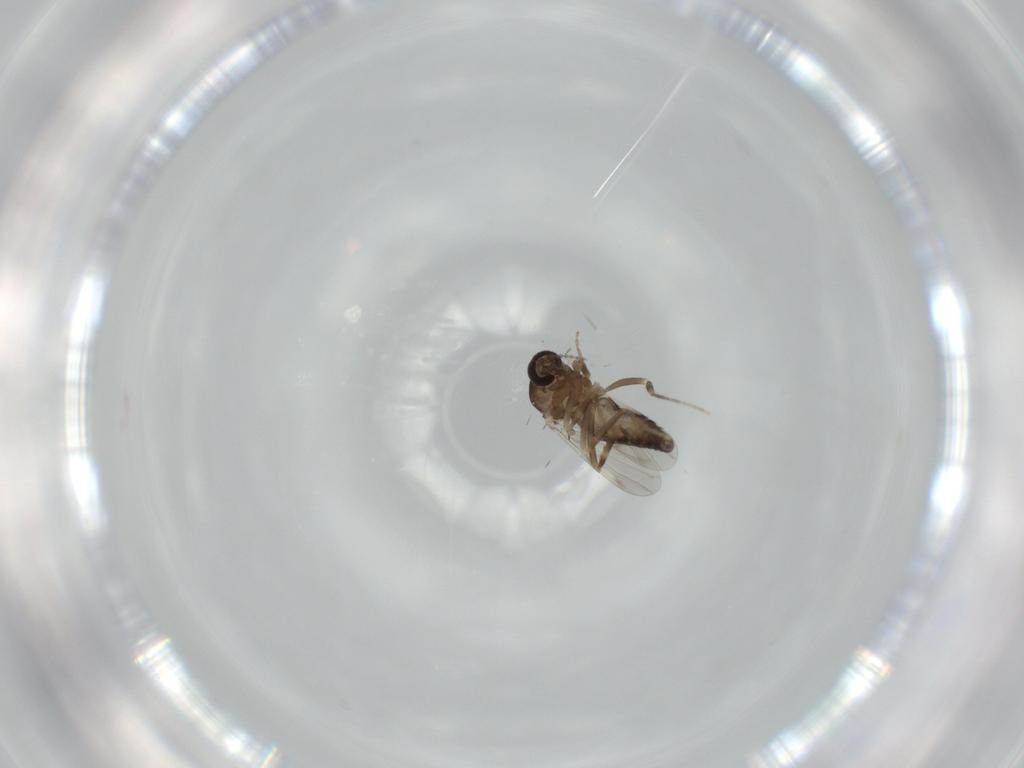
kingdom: Animalia
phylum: Arthropoda
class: Insecta
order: Diptera
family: Ceratopogonidae
